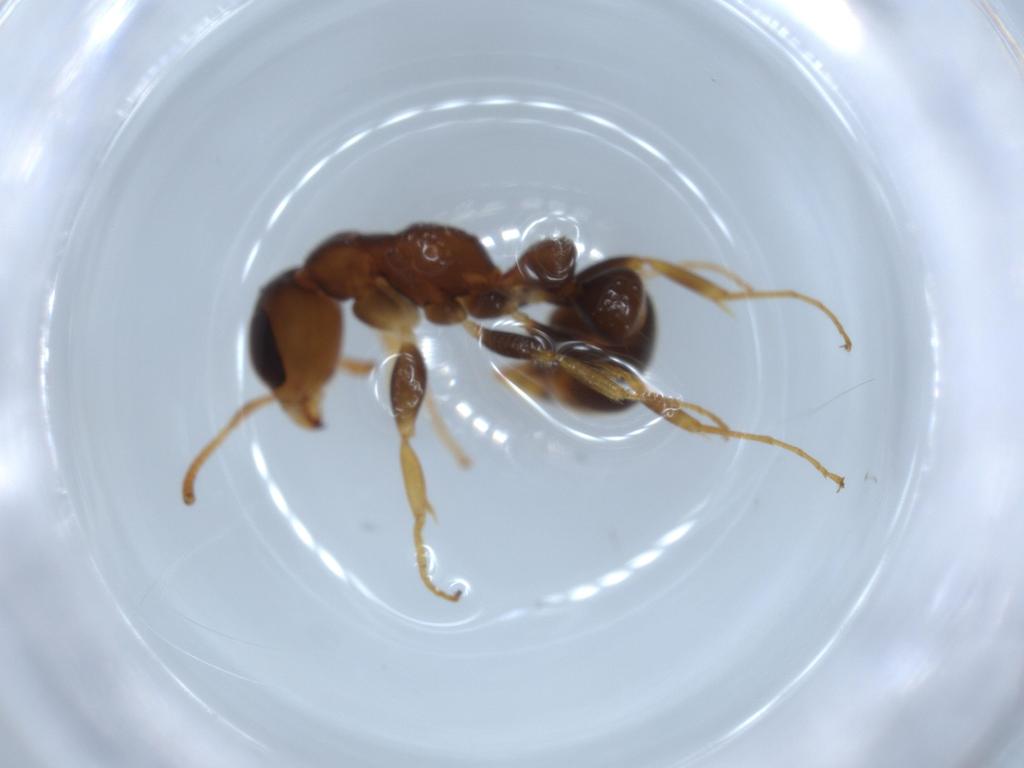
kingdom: Animalia
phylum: Arthropoda
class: Insecta
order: Hymenoptera
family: Formicidae
